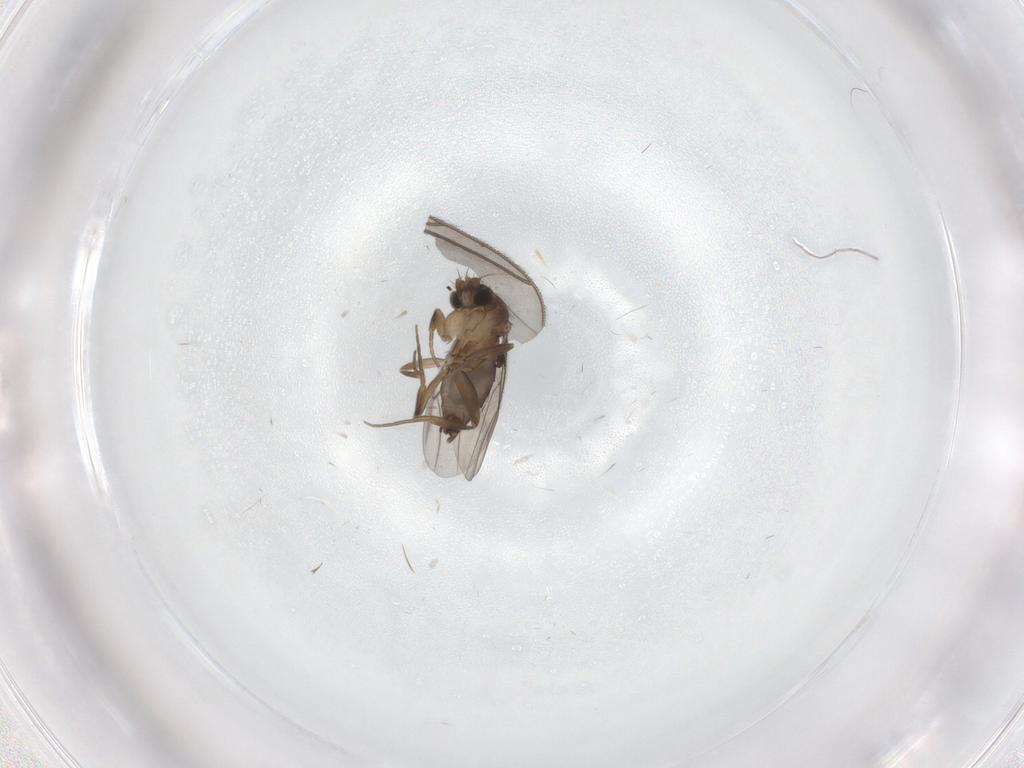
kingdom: Animalia
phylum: Arthropoda
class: Insecta
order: Diptera
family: Phoridae
